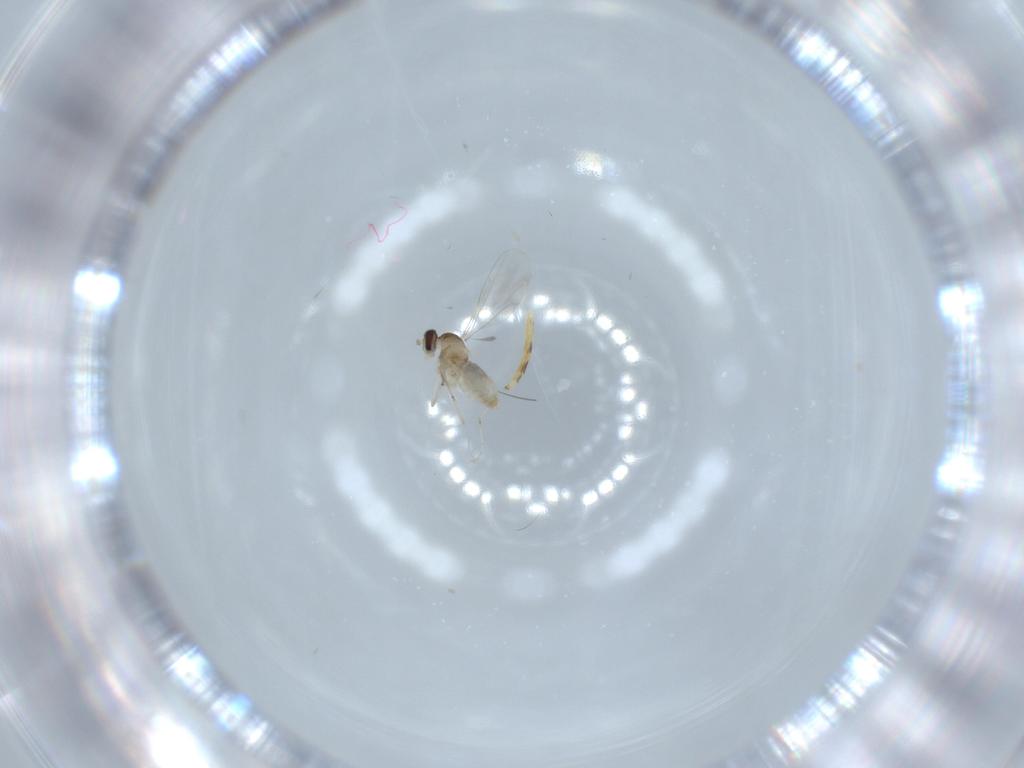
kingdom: Animalia
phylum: Arthropoda
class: Insecta
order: Diptera
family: Cecidomyiidae
